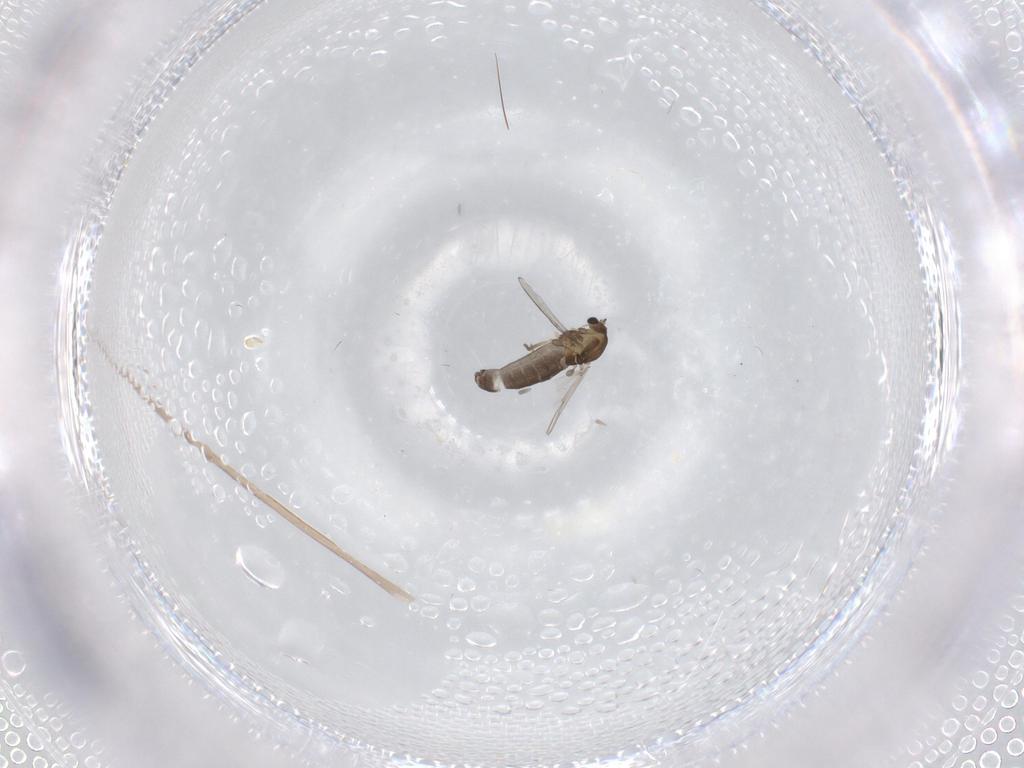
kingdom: Animalia
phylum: Arthropoda
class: Insecta
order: Diptera
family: Chironomidae
